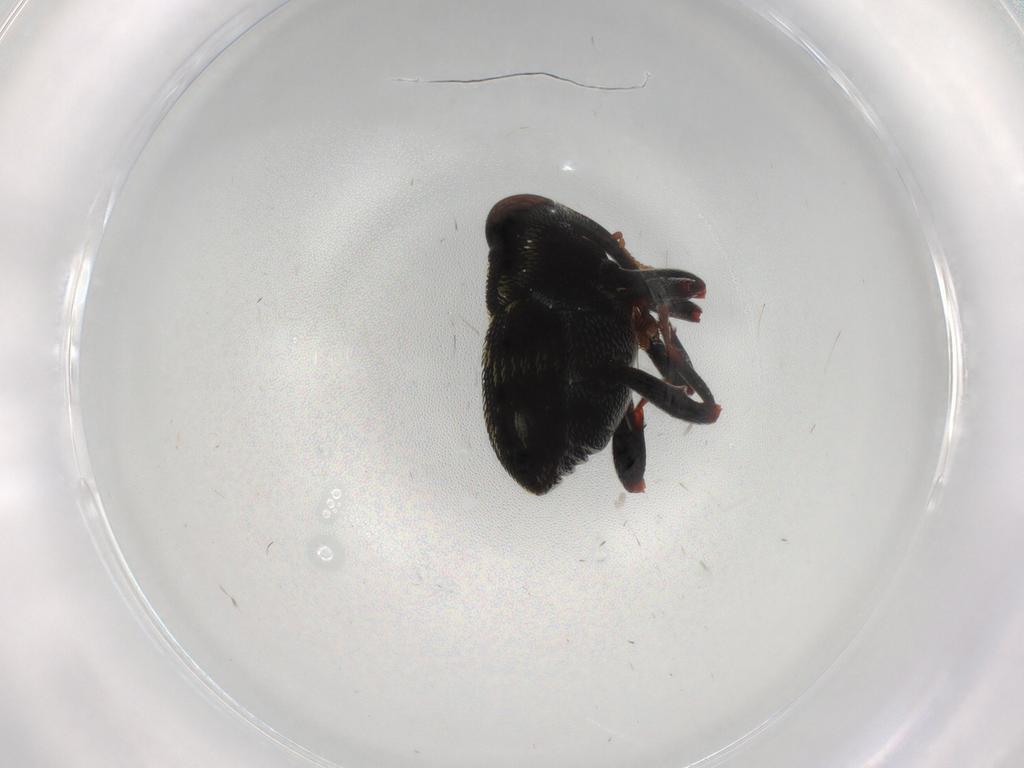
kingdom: Animalia
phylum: Arthropoda
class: Insecta
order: Coleoptera
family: Curculionidae
